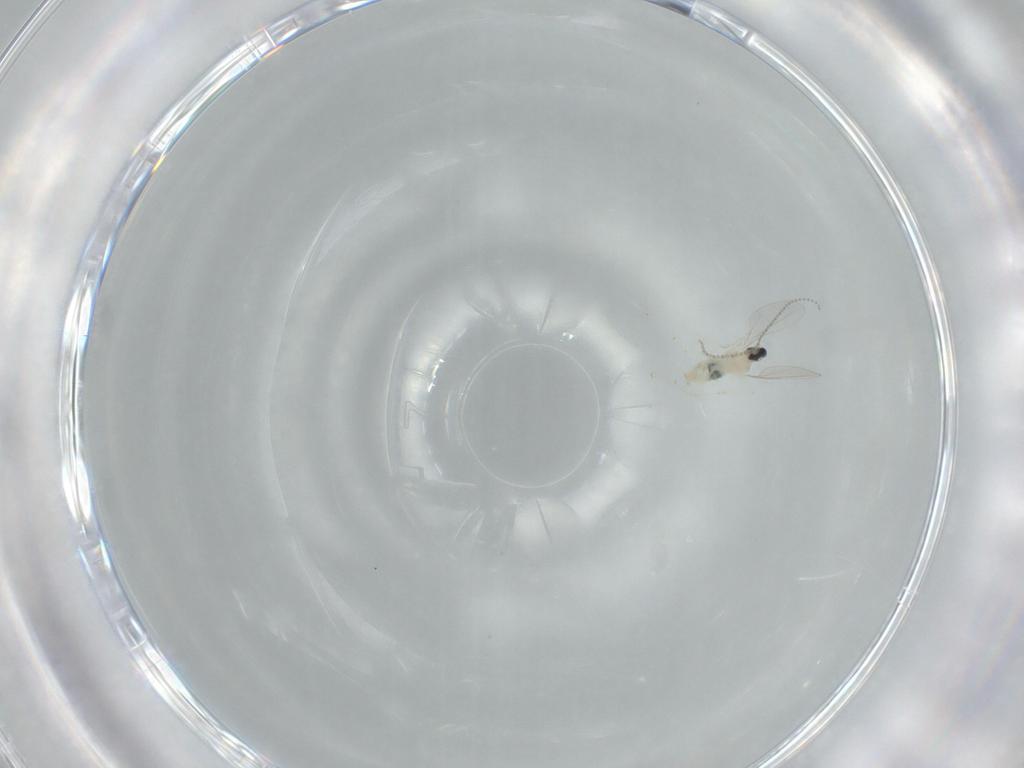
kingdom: Animalia
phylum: Arthropoda
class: Insecta
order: Diptera
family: Cecidomyiidae
